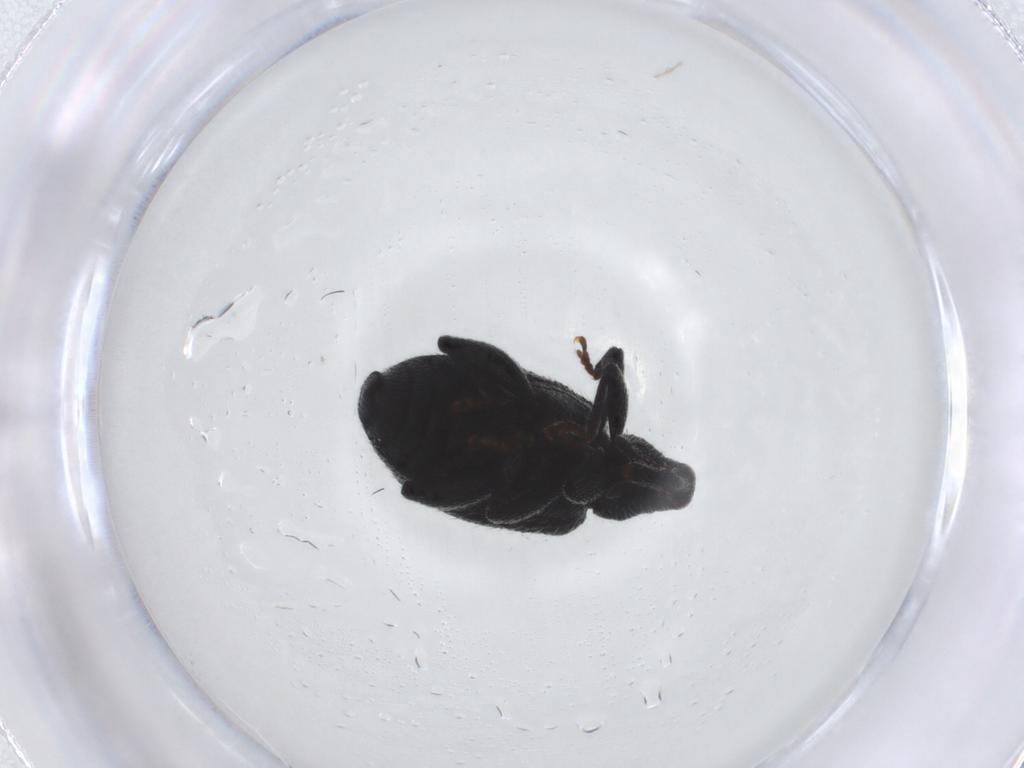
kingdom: Animalia
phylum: Arthropoda
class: Insecta
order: Coleoptera
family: Curculionidae
